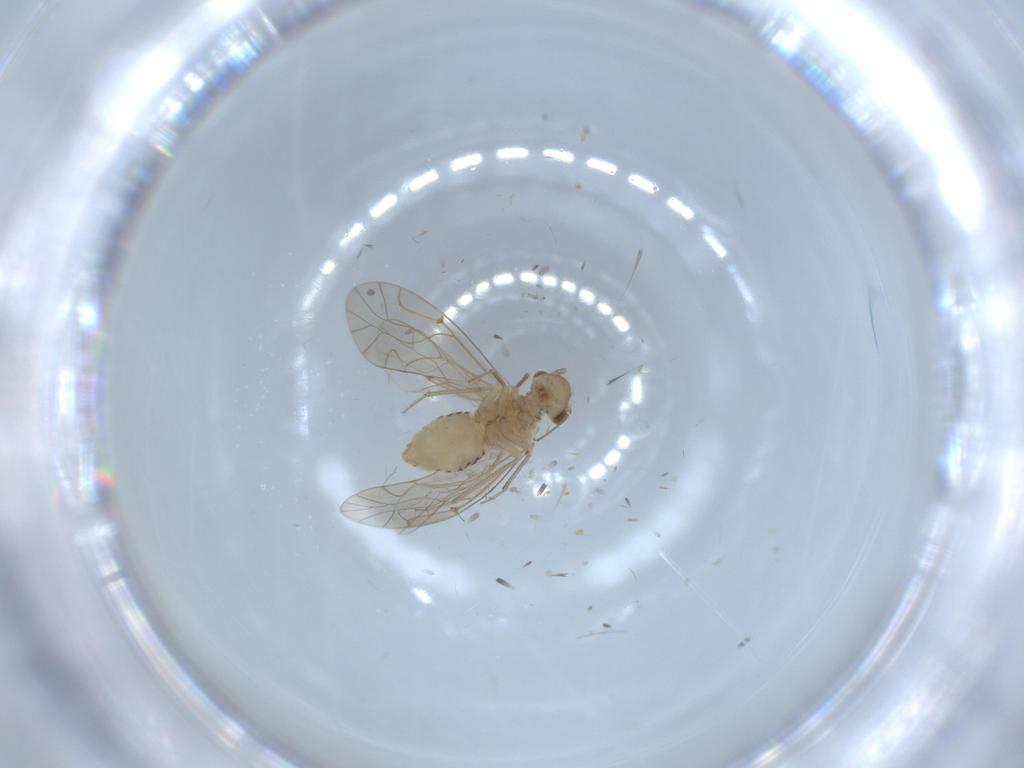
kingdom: Animalia
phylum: Arthropoda
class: Insecta
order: Psocodea
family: Lachesillidae
